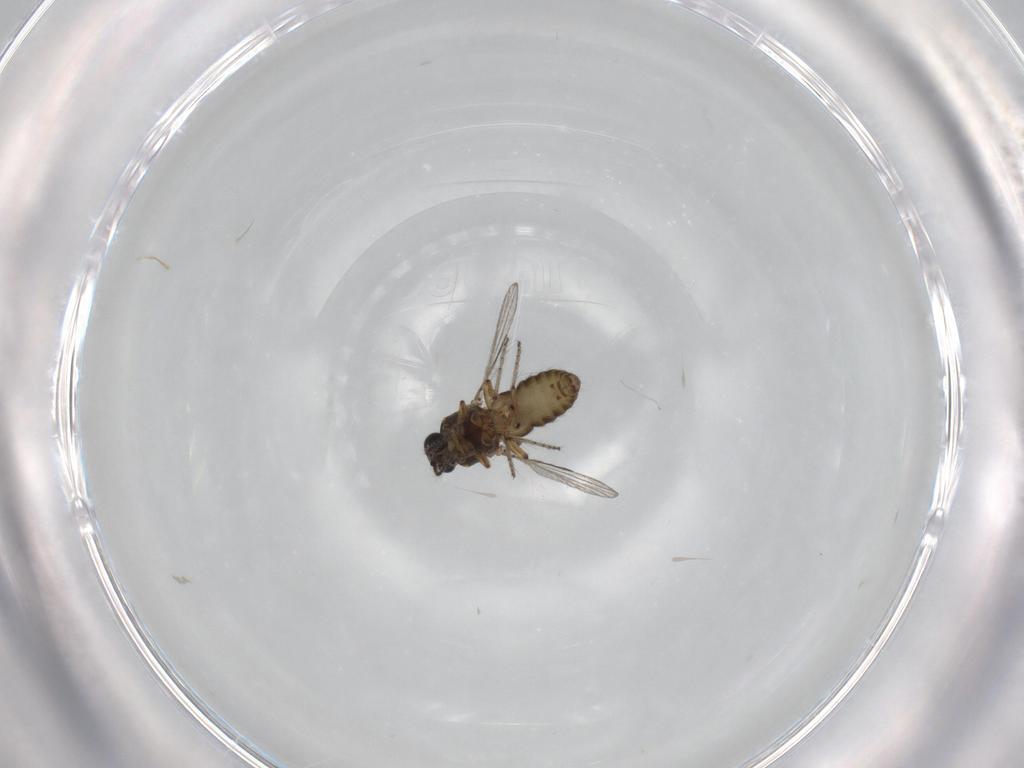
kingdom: Animalia
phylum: Arthropoda
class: Insecta
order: Diptera
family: Ceratopogonidae
